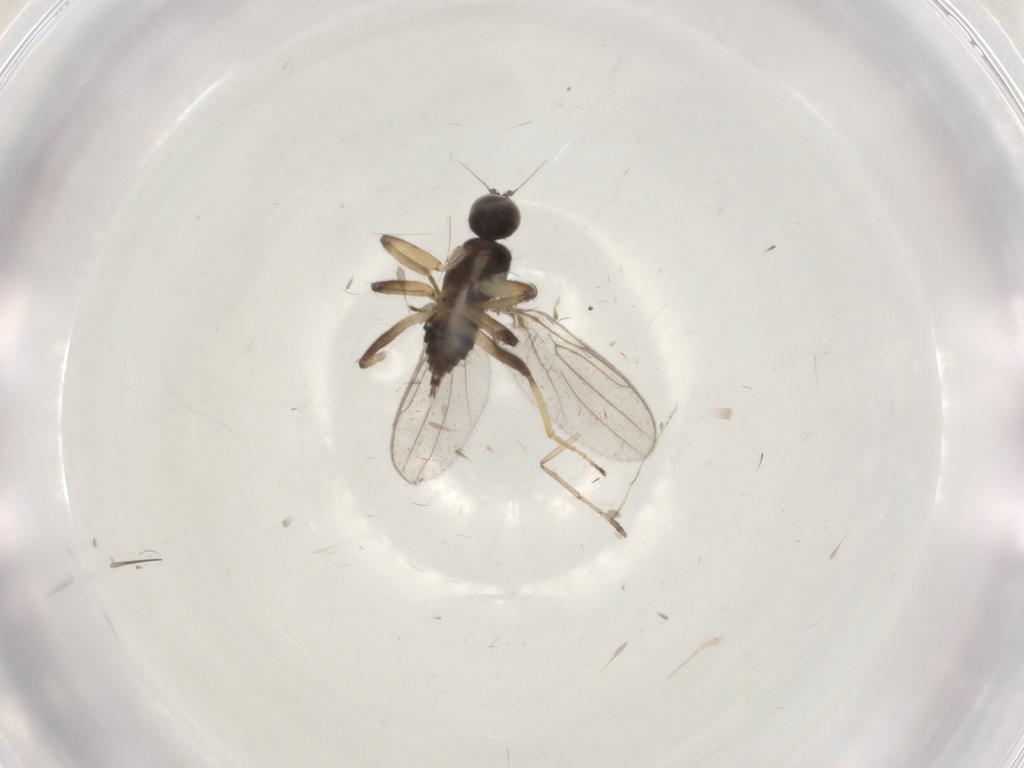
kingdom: Animalia
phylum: Arthropoda
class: Insecta
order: Diptera
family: Cecidomyiidae
